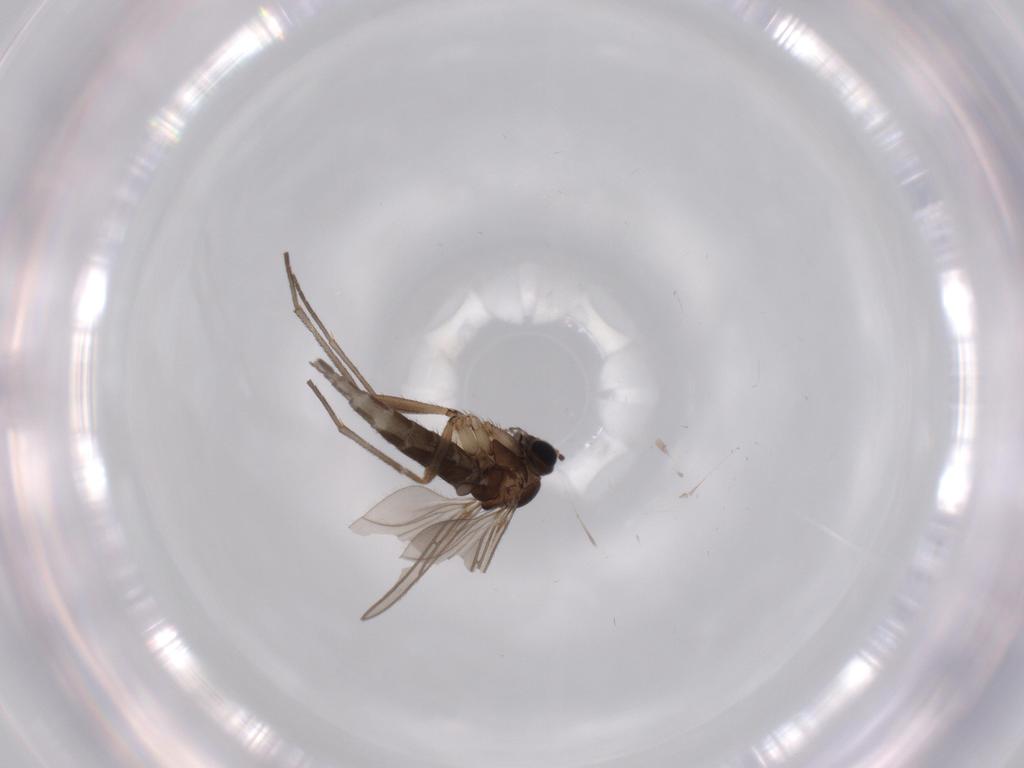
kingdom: Animalia
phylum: Arthropoda
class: Insecta
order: Diptera
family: Sciaridae
